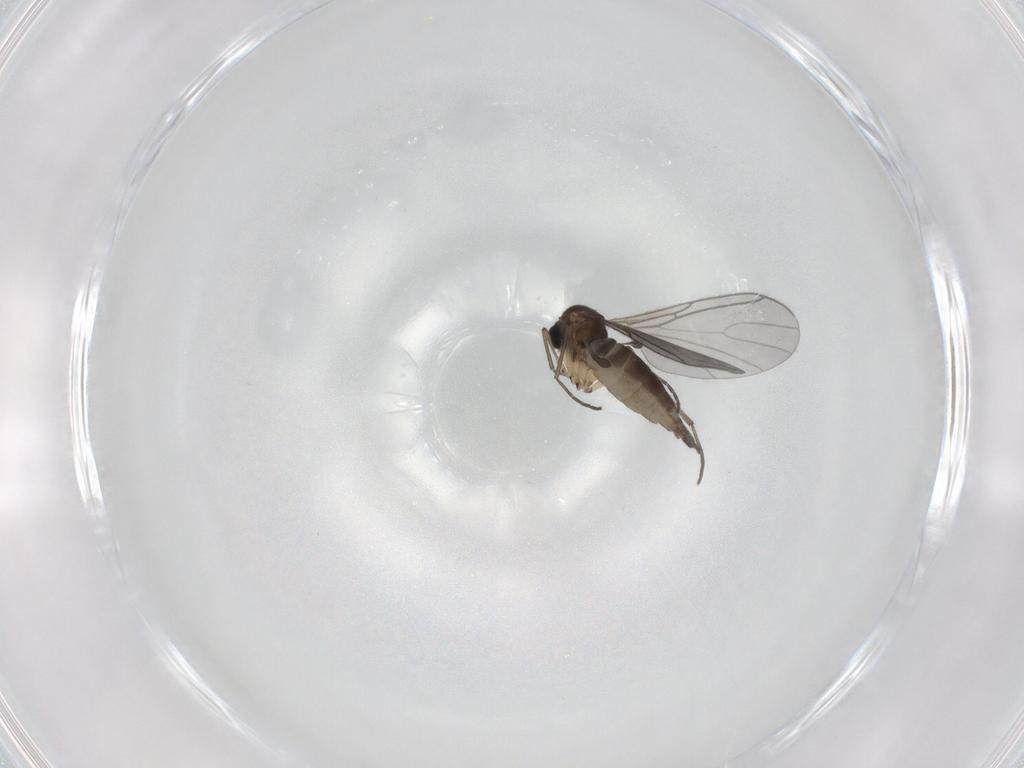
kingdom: Animalia
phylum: Arthropoda
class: Insecta
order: Diptera
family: Sciaridae
